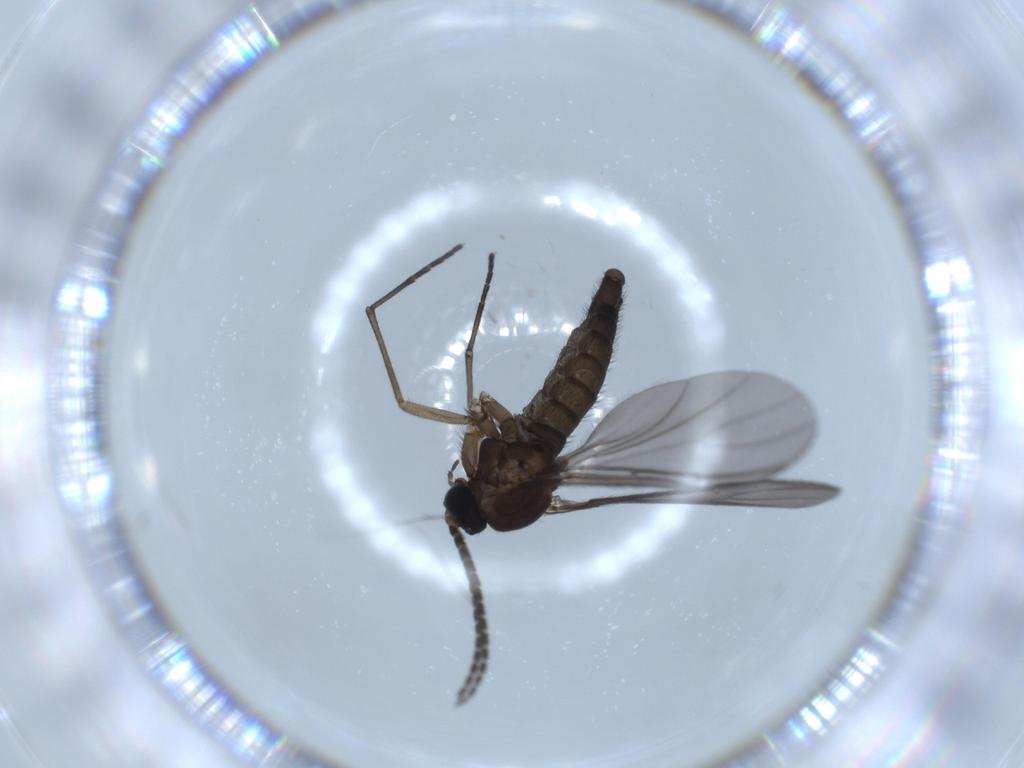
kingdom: Animalia
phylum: Arthropoda
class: Insecta
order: Diptera
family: Sciaridae
